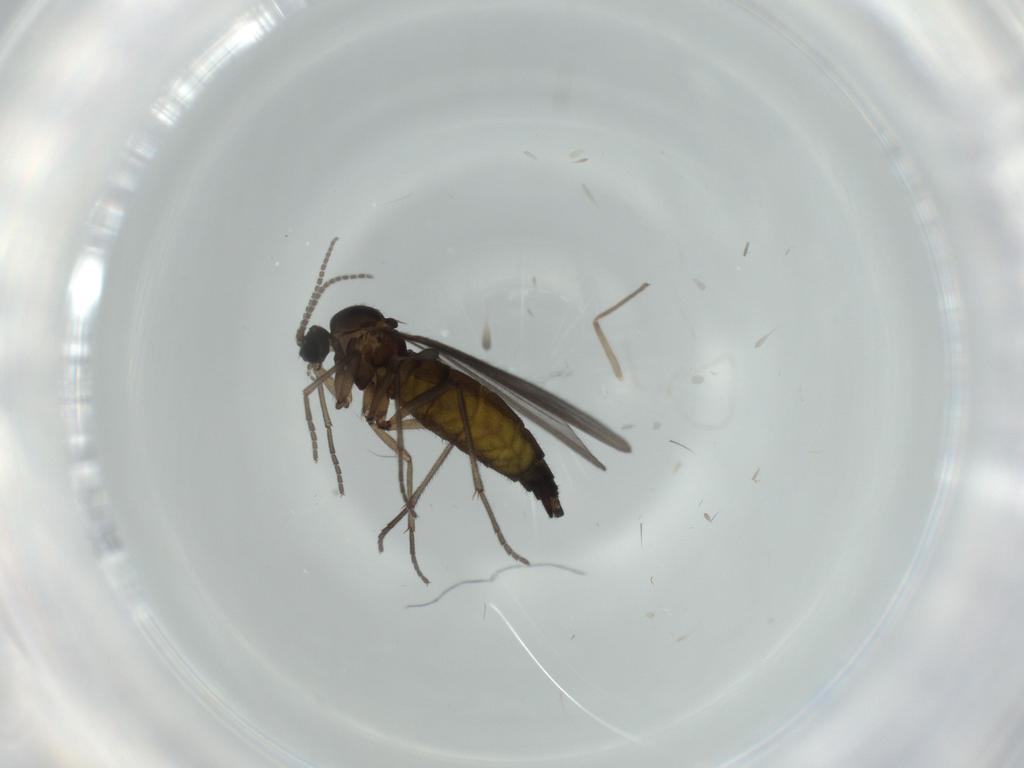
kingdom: Animalia
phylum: Arthropoda
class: Insecta
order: Diptera
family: Sciaridae
